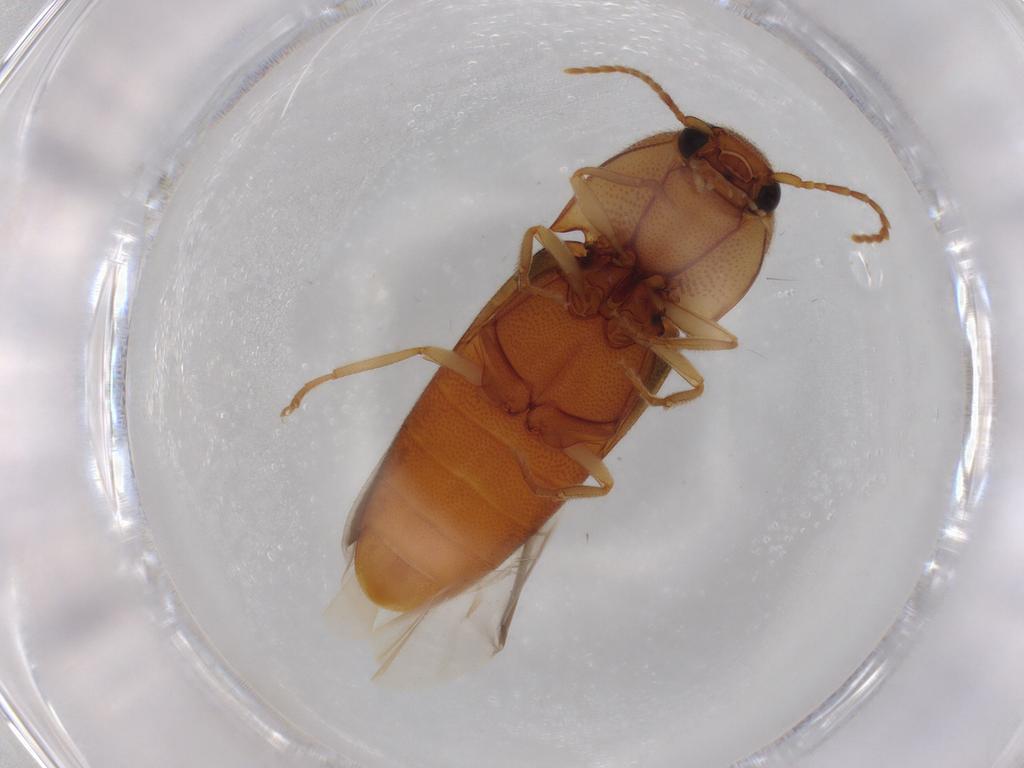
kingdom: Animalia
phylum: Arthropoda
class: Insecta
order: Coleoptera
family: Elateridae
